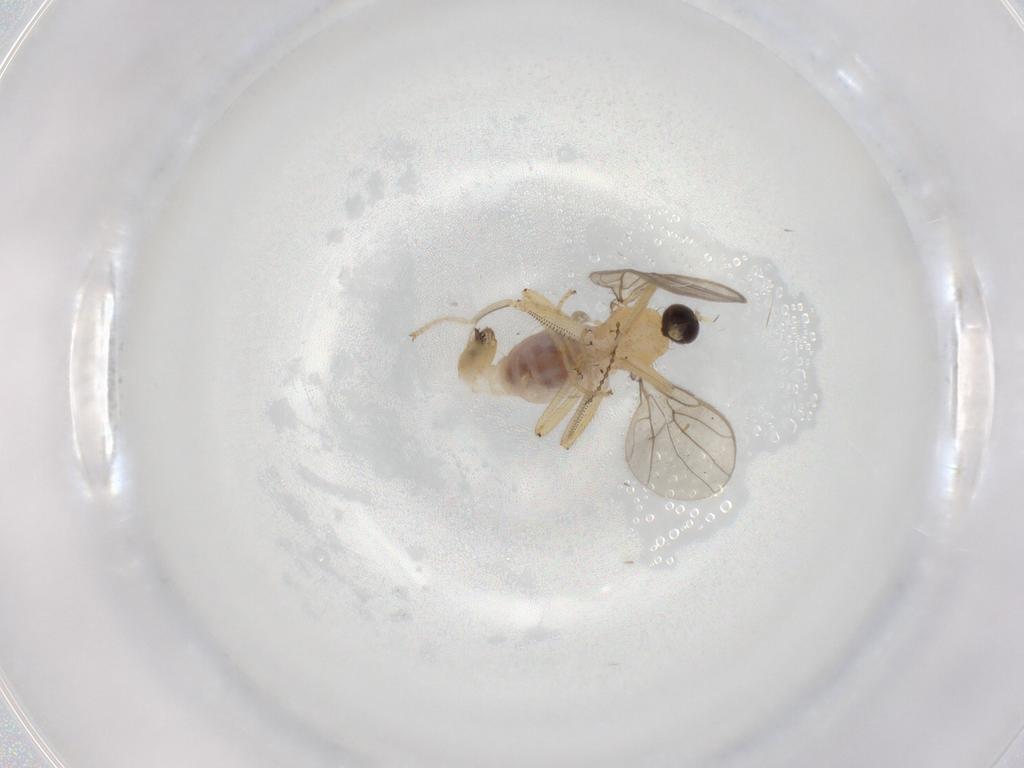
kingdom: Animalia
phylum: Arthropoda
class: Insecta
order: Diptera
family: Hybotidae
